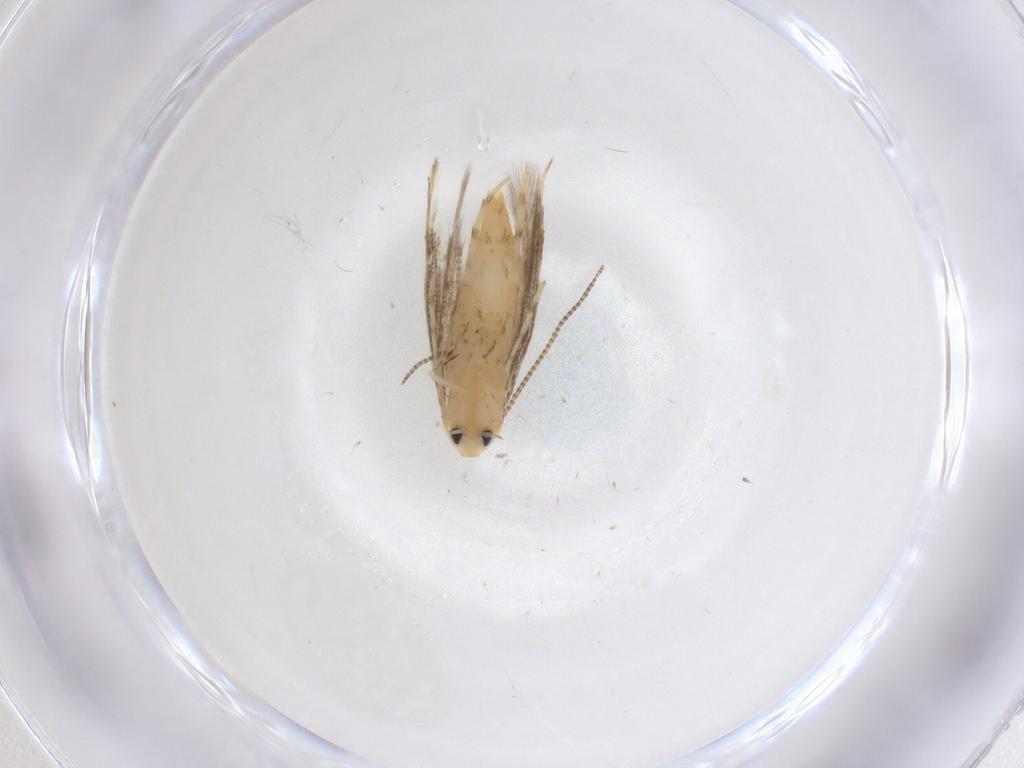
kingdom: Animalia
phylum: Arthropoda
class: Insecta
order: Lepidoptera
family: Gracillariidae
